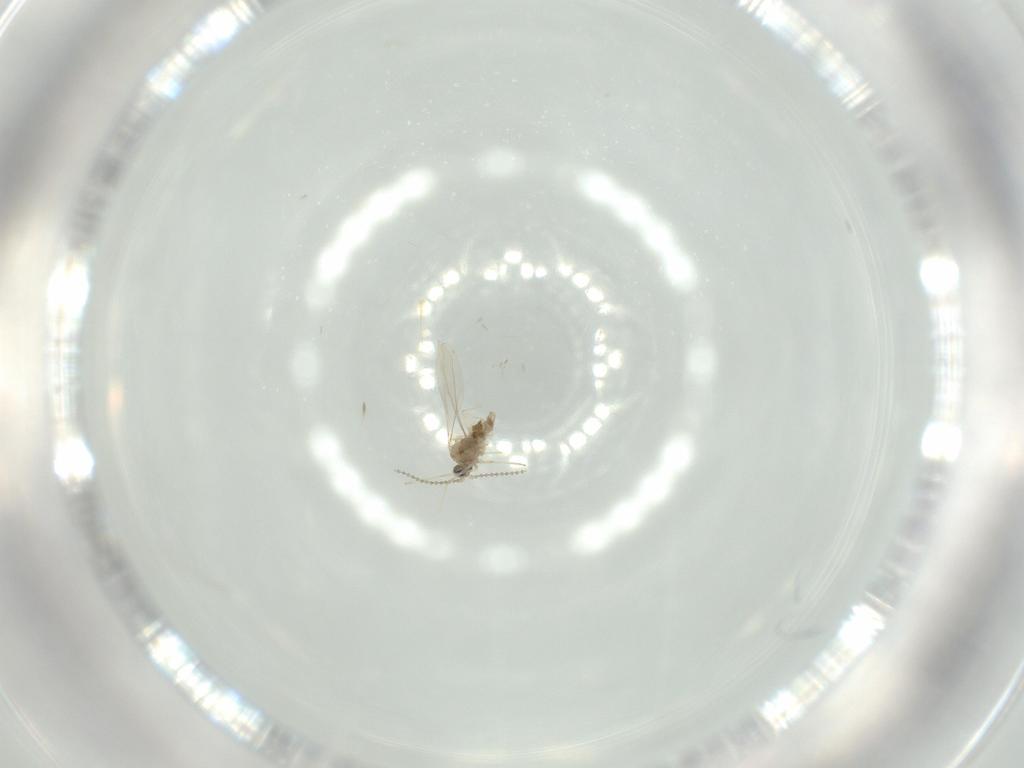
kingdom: Animalia
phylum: Arthropoda
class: Insecta
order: Diptera
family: Cecidomyiidae
